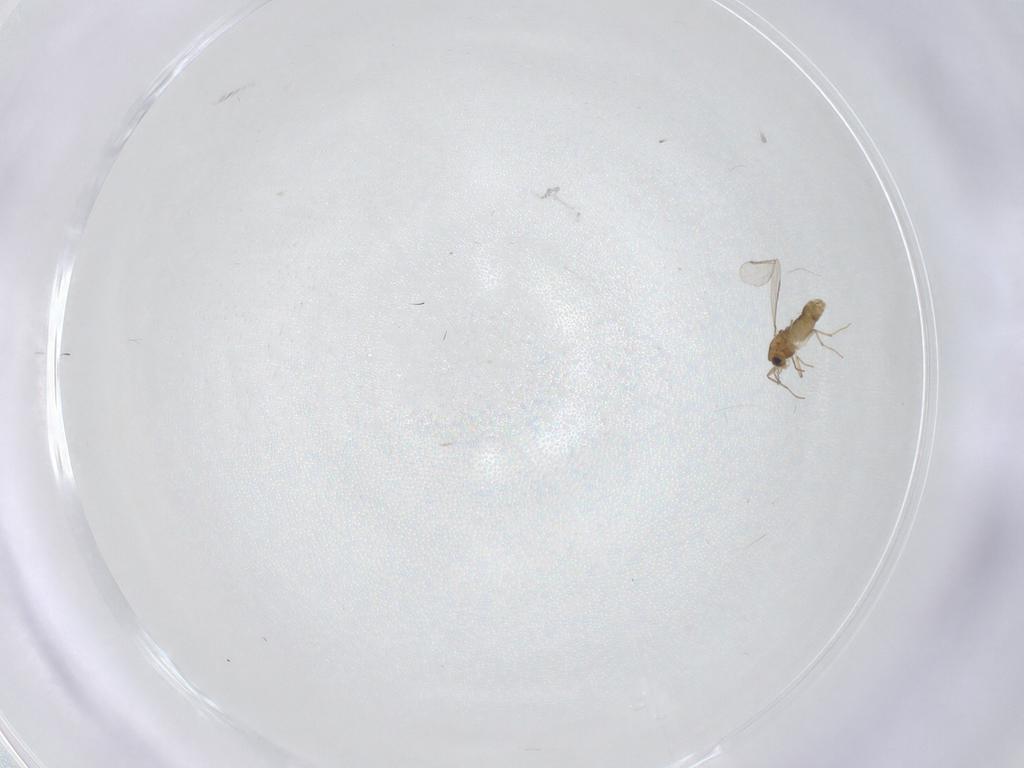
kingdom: Animalia
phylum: Arthropoda
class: Insecta
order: Diptera
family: Chironomidae
